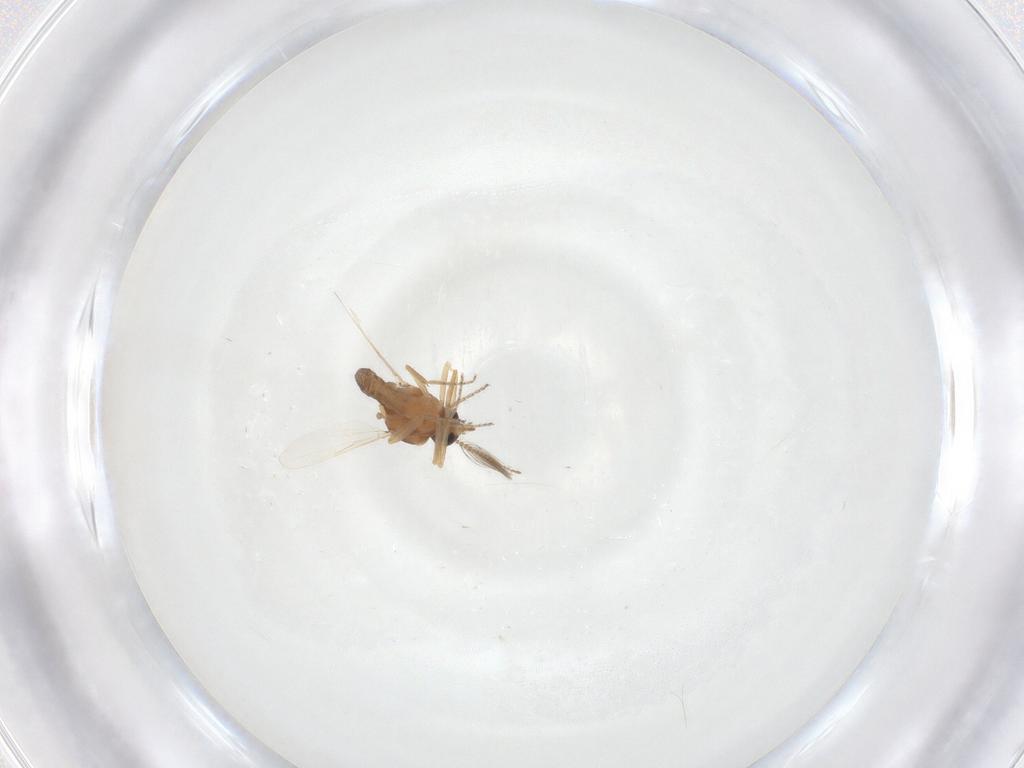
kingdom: Animalia
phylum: Arthropoda
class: Insecta
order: Diptera
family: Ceratopogonidae
